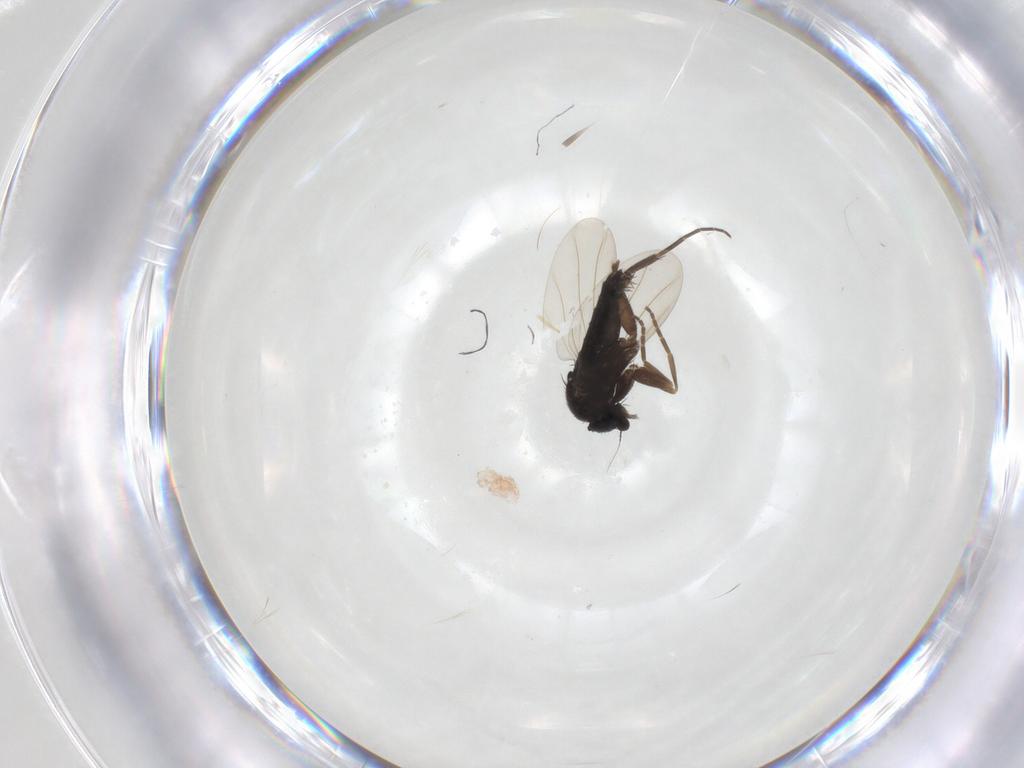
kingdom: Animalia
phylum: Arthropoda
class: Insecta
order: Diptera
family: Phoridae
